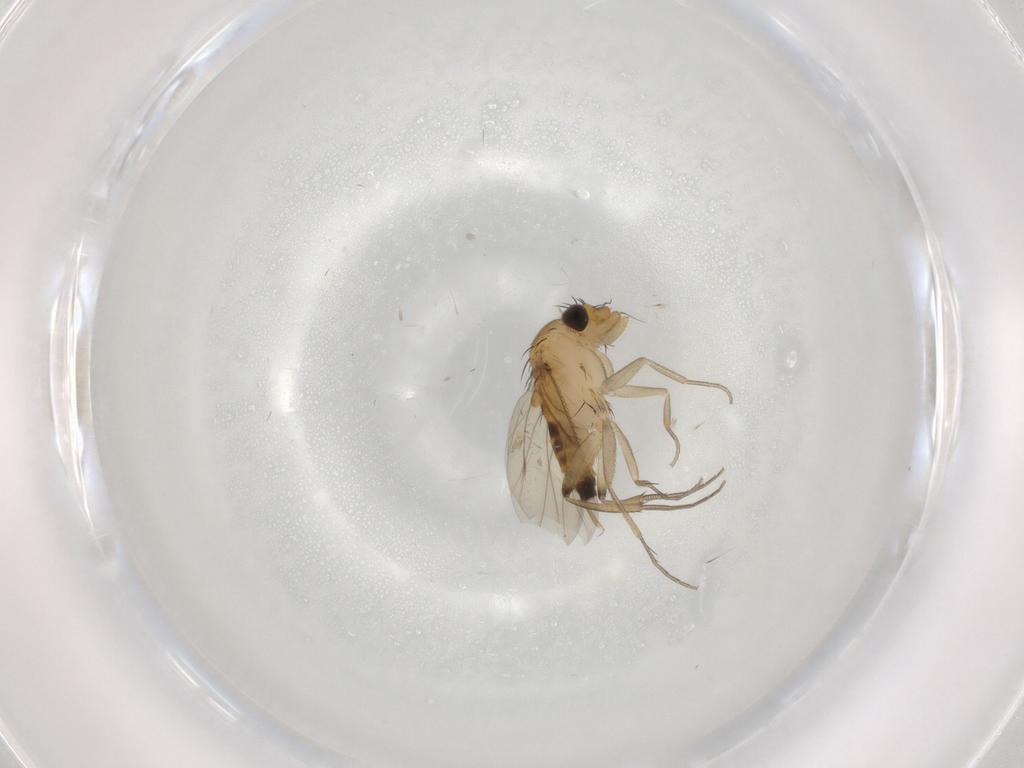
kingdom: Animalia
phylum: Arthropoda
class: Insecta
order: Diptera
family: Phoridae
